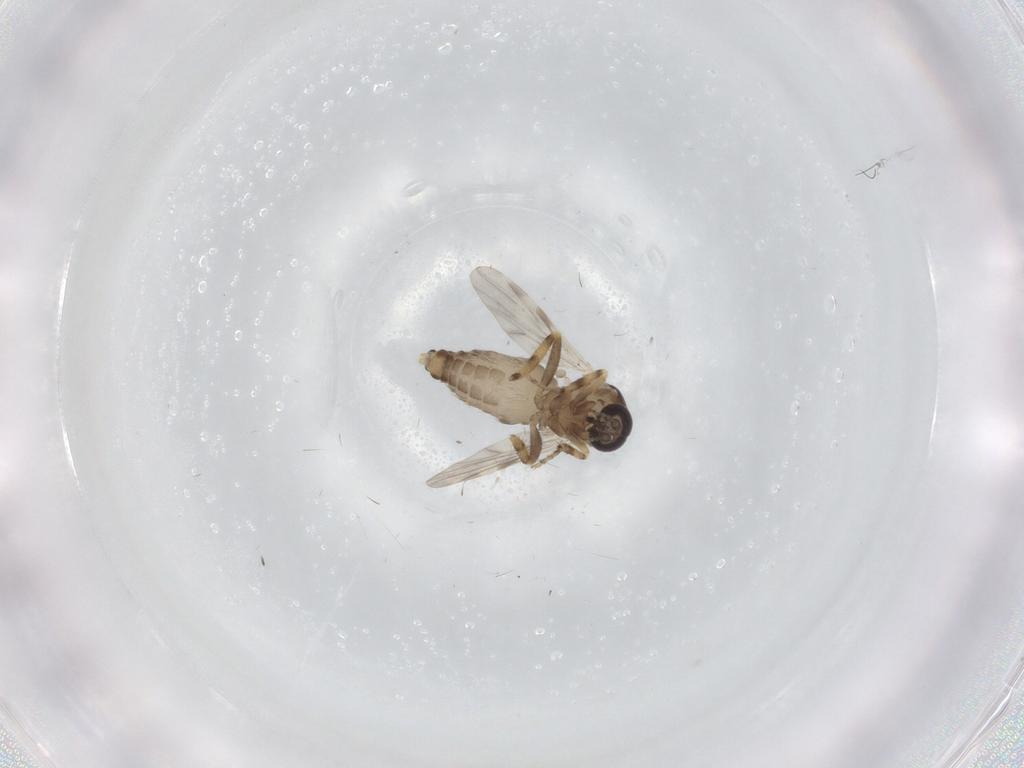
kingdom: Animalia
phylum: Arthropoda
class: Insecta
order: Diptera
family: Ceratopogonidae
